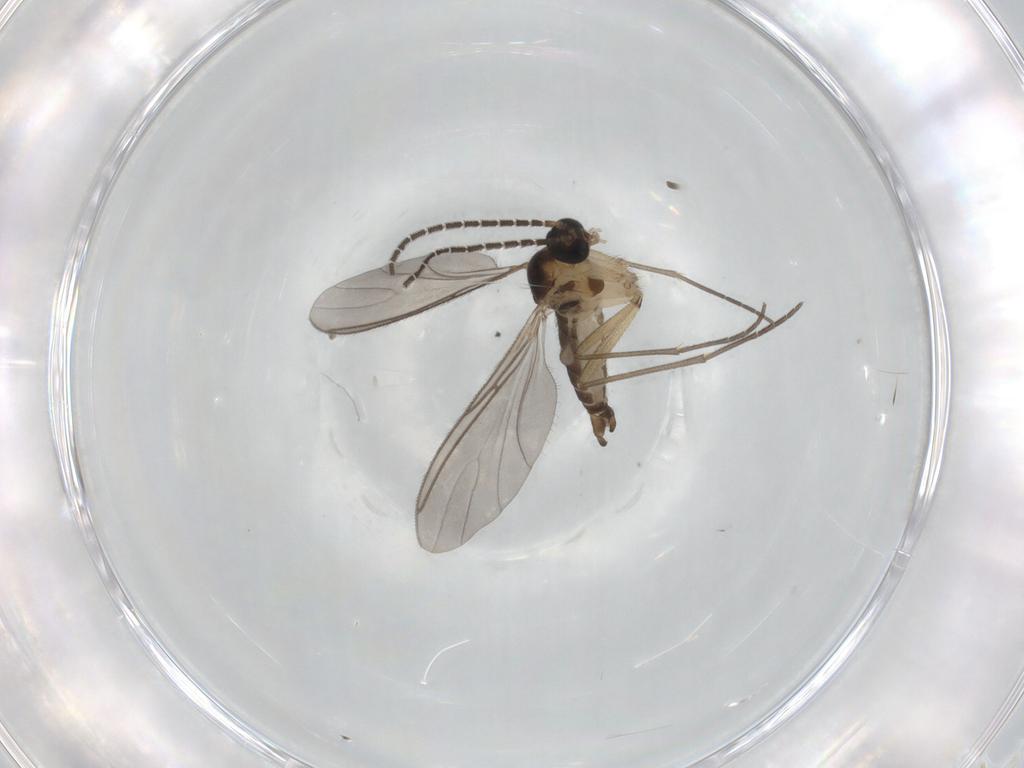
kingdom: Animalia
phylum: Arthropoda
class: Insecta
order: Diptera
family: Sciaridae
